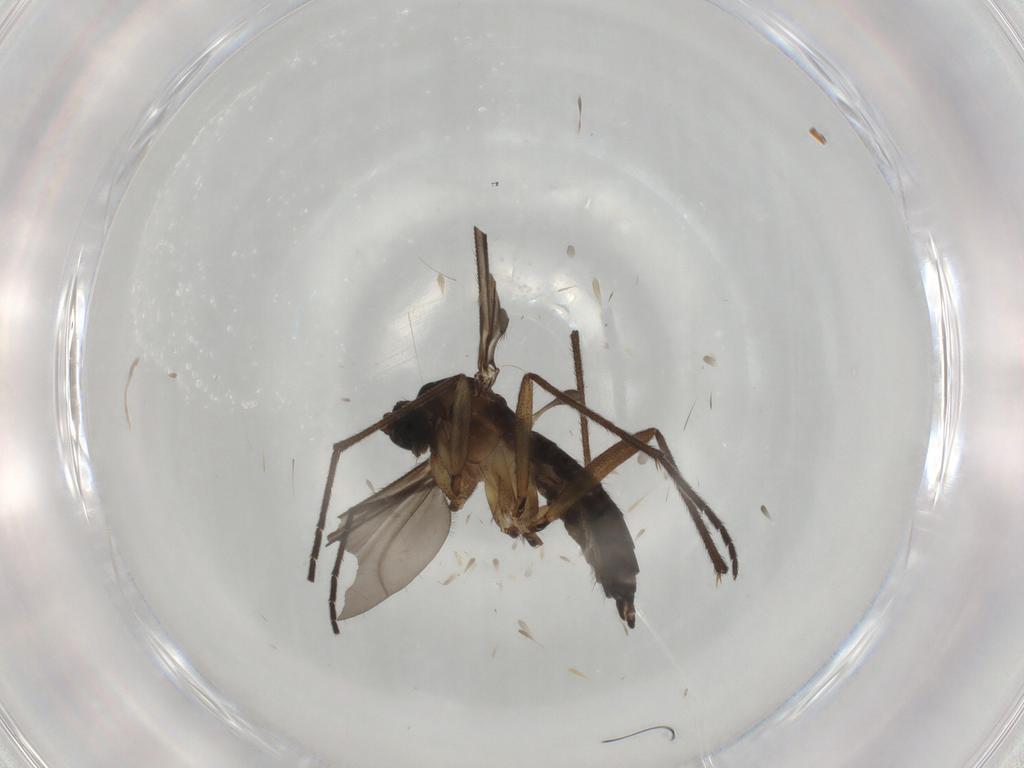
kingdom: Animalia
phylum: Arthropoda
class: Insecta
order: Diptera
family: Sciaridae
